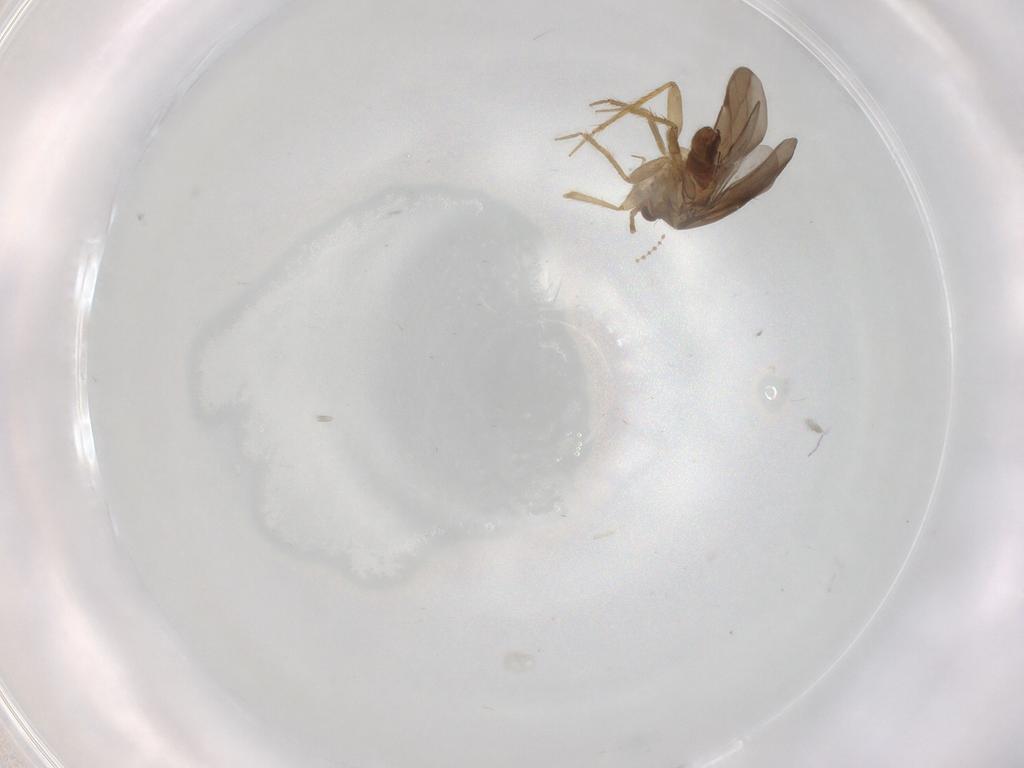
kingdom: Animalia
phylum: Arthropoda
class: Insecta
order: Hemiptera
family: Ceratocombidae
